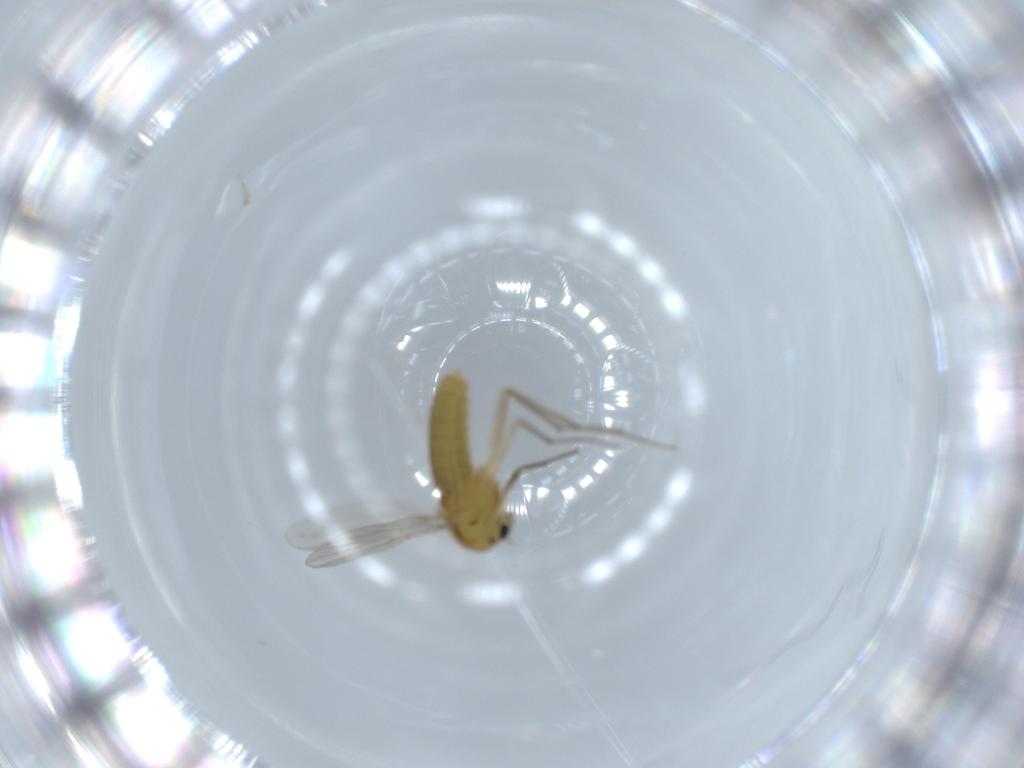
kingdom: Animalia
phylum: Arthropoda
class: Insecta
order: Diptera
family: Chironomidae
